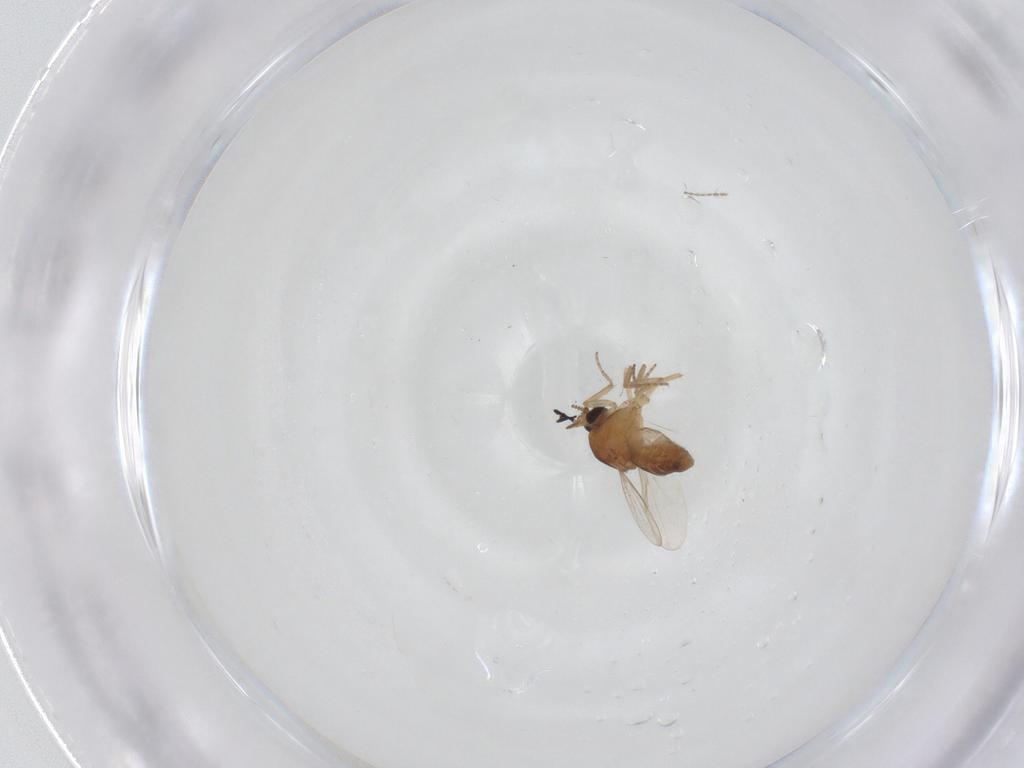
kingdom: Animalia
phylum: Arthropoda
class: Insecta
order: Diptera
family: Ceratopogonidae
